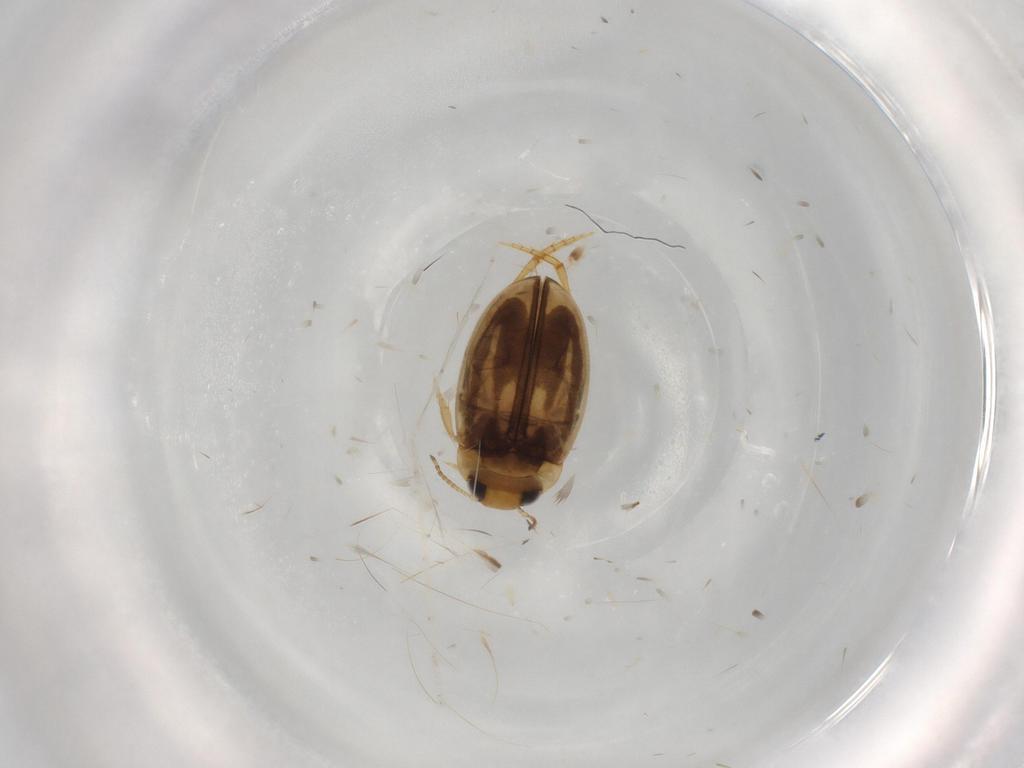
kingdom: Animalia
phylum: Arthropoda
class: Insecta
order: Coleoptera
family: Dytiscidae
